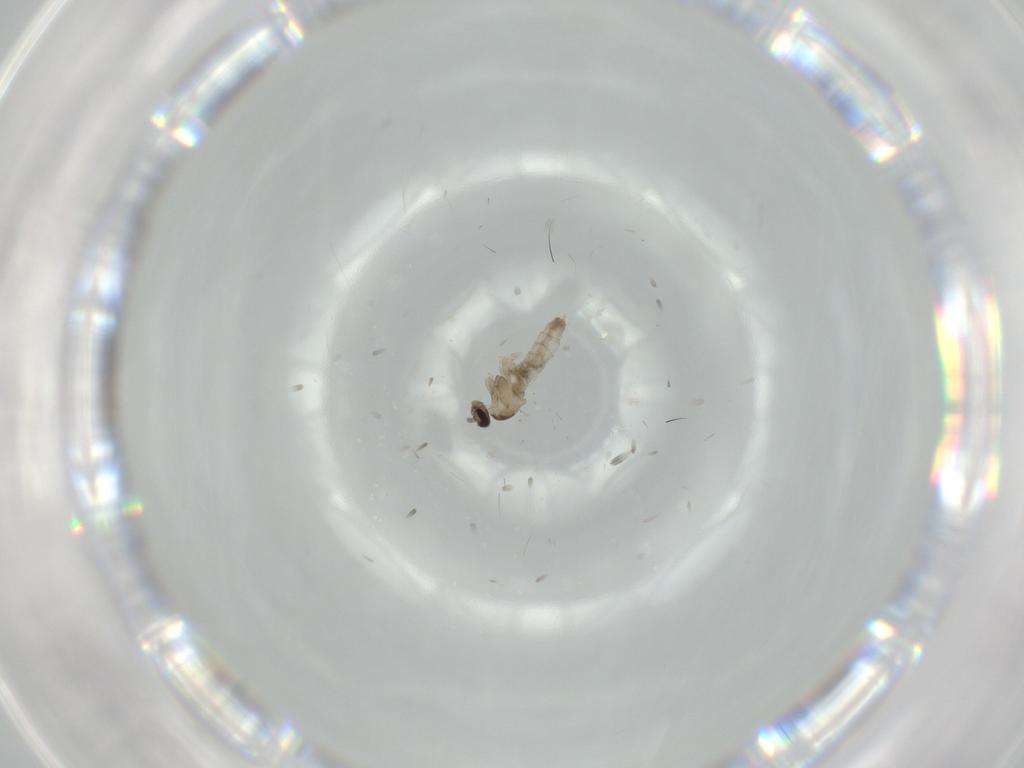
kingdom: Animalia
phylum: Arthropoda
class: Insecta
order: Diptera
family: Cecidomyiidae
